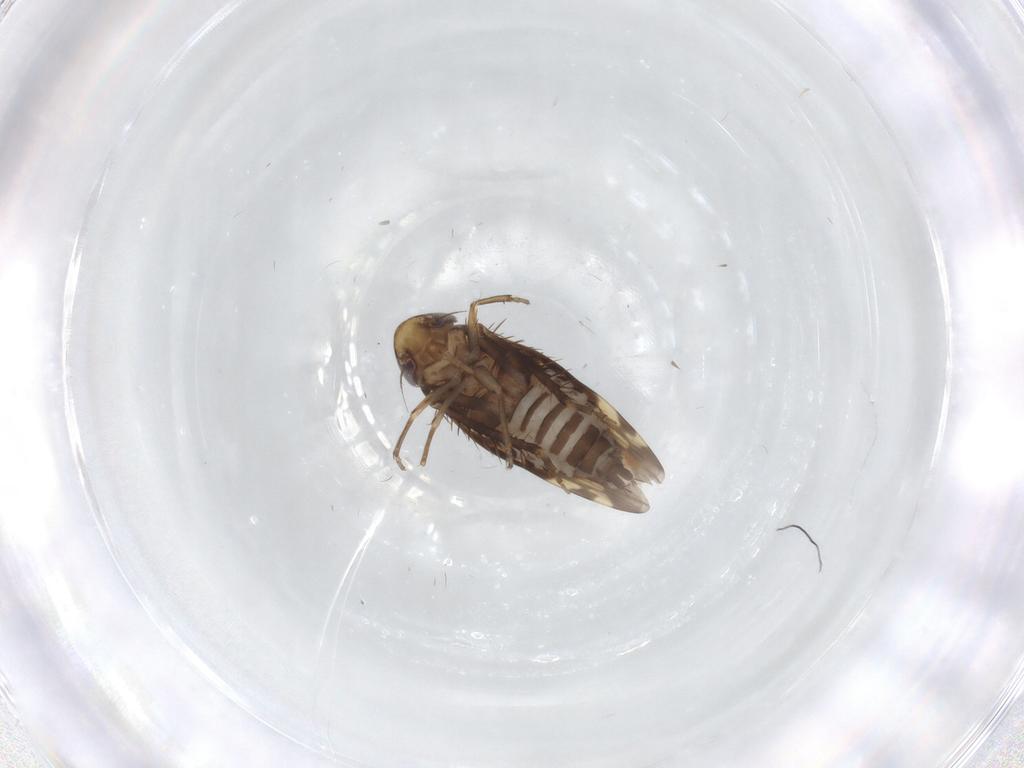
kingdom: Animalia
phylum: Arthropoda
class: Insecta
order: Hemiptera
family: Cicadellidae
